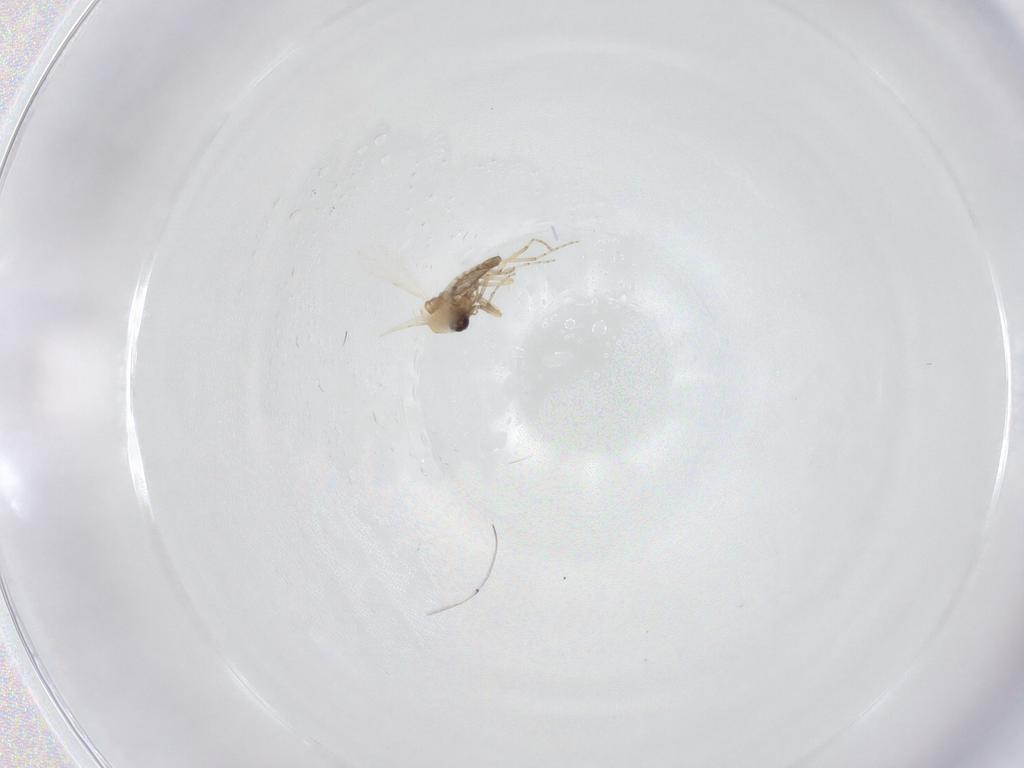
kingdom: Animalia
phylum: Arthropoda
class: Insecta
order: Diptera
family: Ceratopogonidae
